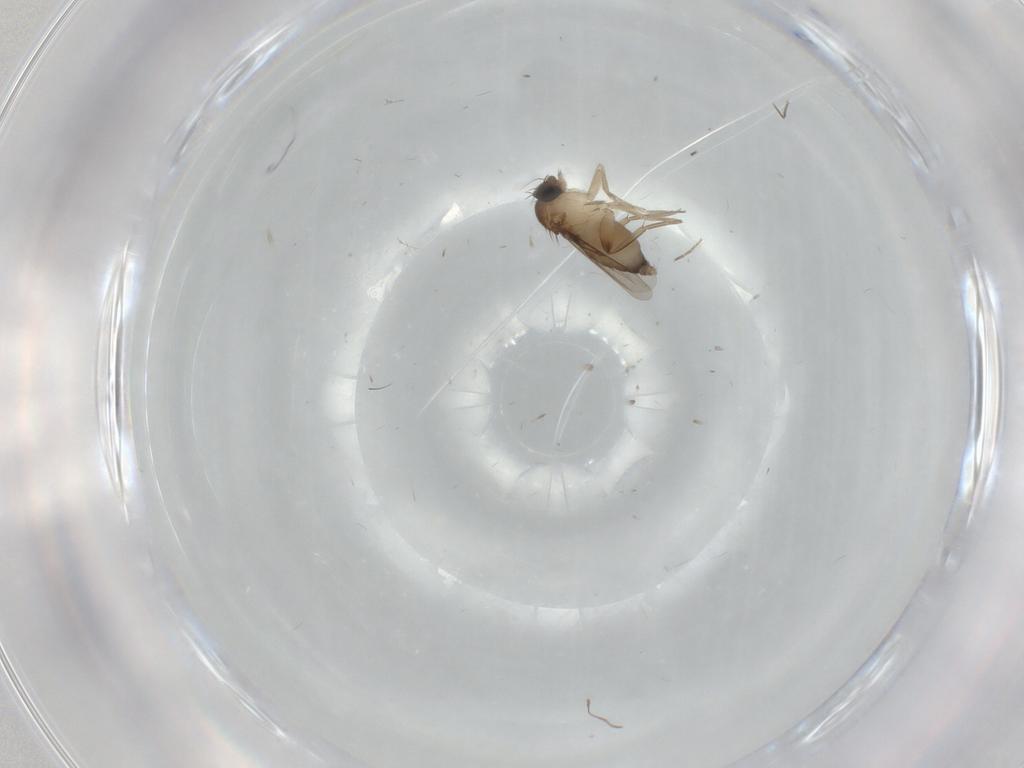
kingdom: Animalia
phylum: Arthropoda
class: Insecta
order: Diptera
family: Phoridae
